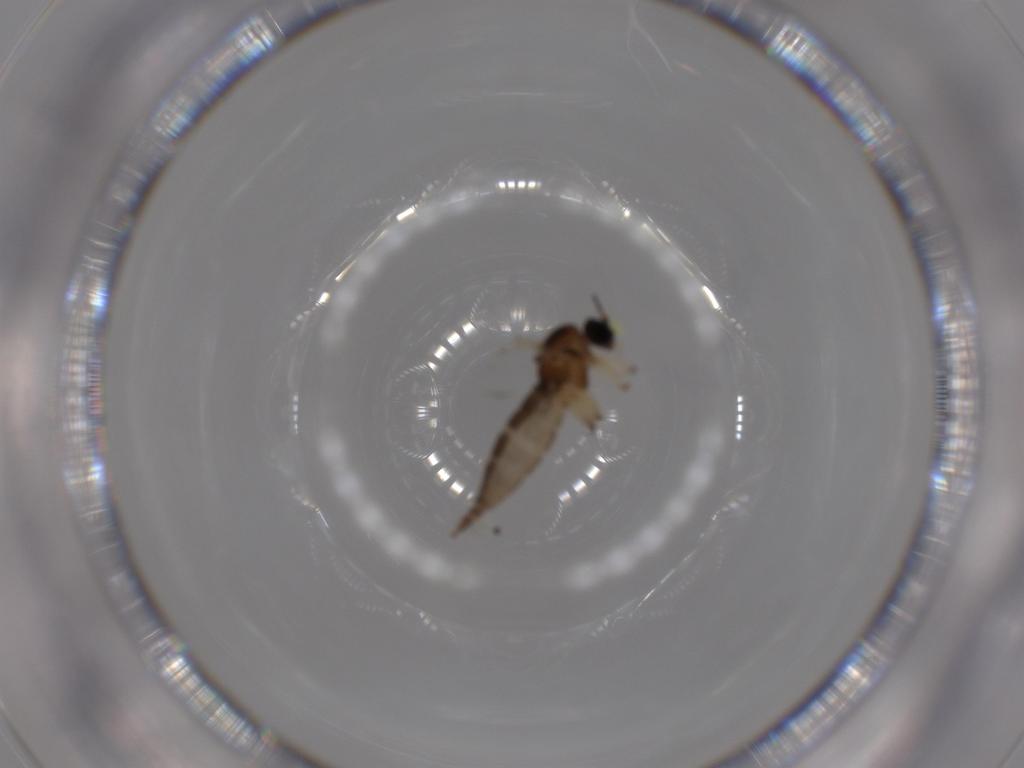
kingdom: Animalia
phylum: Arthropoda
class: Insecta
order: Diptera
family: Hybotidae
